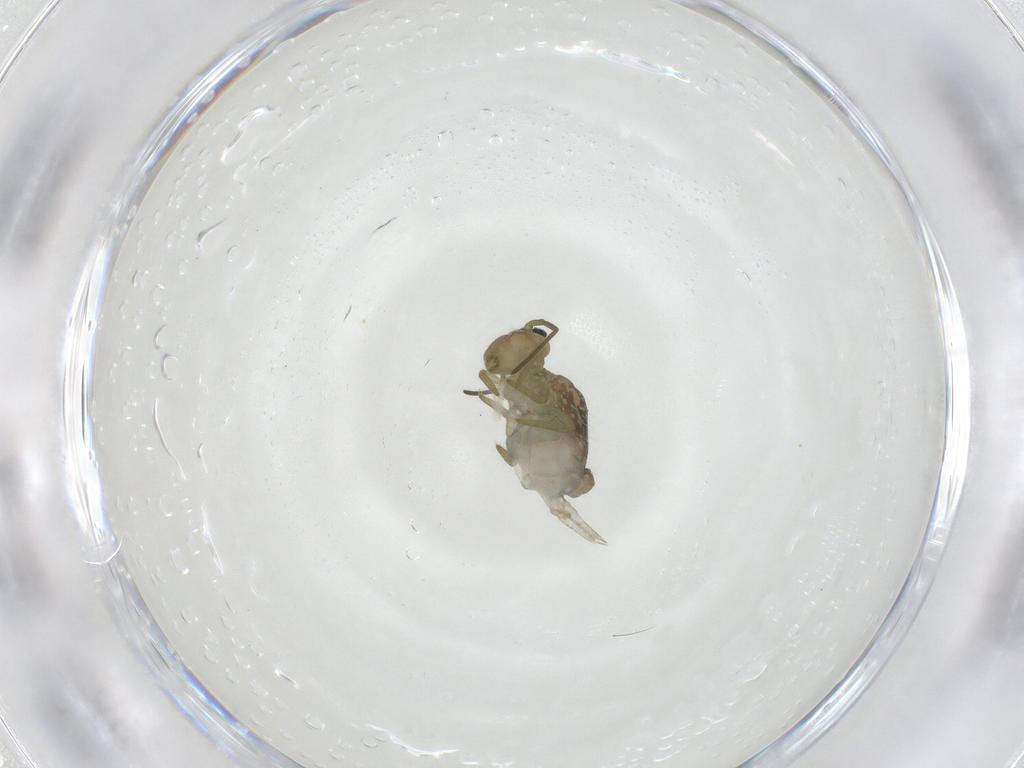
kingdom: Animalia
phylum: Arthropoda
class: Collembola
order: Symphypleona
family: Sminthuridae
